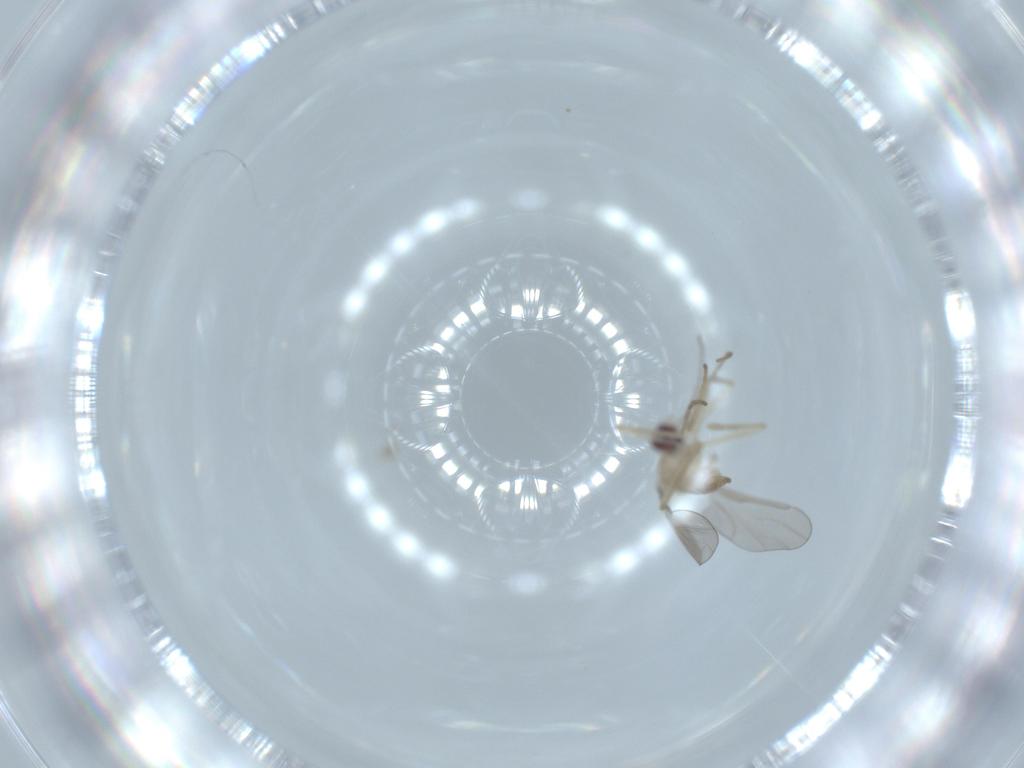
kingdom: Animalia
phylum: Arthropoda
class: Insecta
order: Diptera
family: Cecidomyiidae
